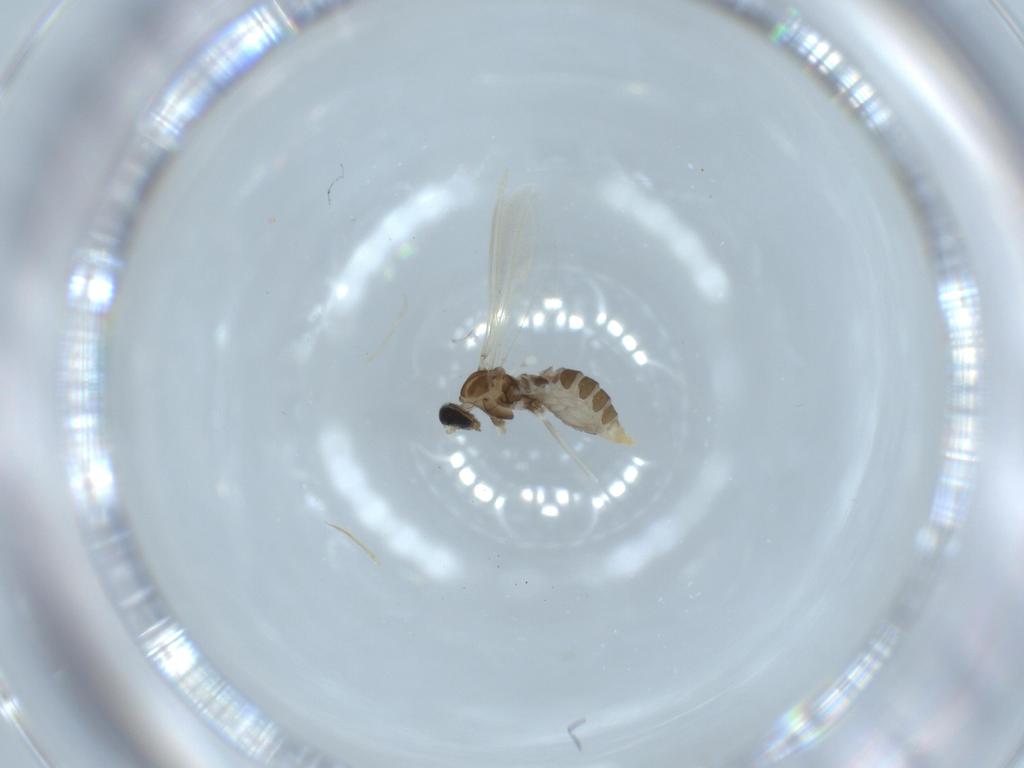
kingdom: Animalia
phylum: Arthropoda
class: Insecta
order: Diptera
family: Cecidomyiidae
